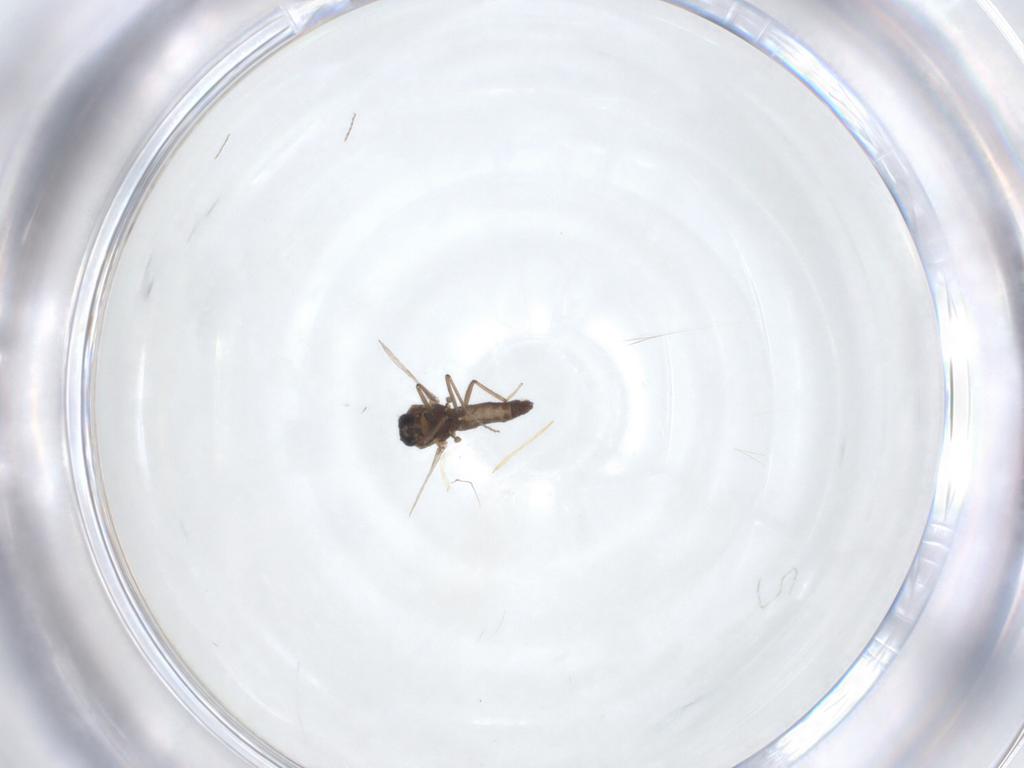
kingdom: Animalia
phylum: Arthropoda
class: Insecta
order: Diptera
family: Ceratopogonidae
